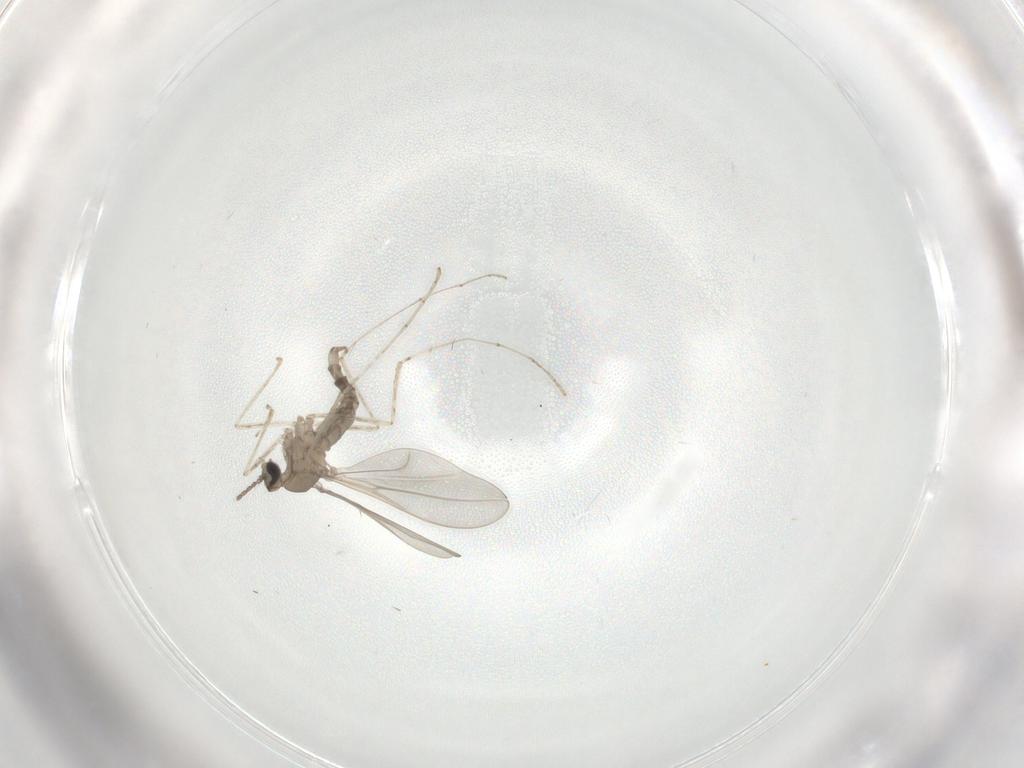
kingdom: Animalia
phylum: Arthropoda
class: Insecta
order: Diptera
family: Cecidomyiidae
